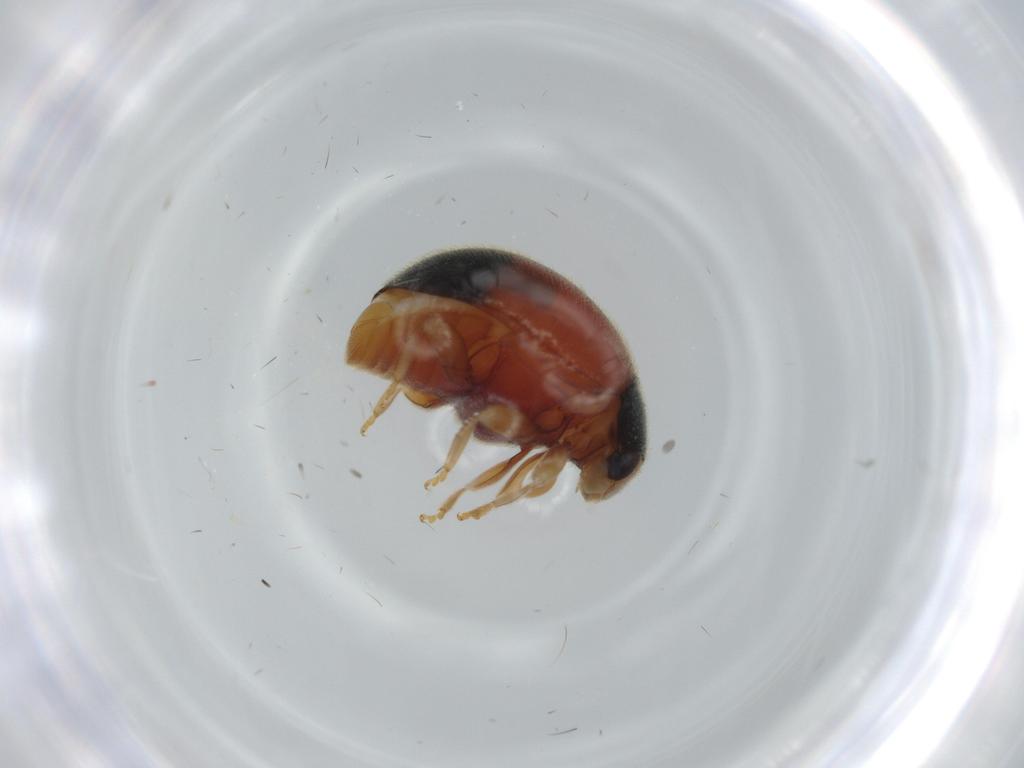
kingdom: Animalia
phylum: Arthropoda
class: Insecta
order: Coleoptera
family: Coccinellidae
